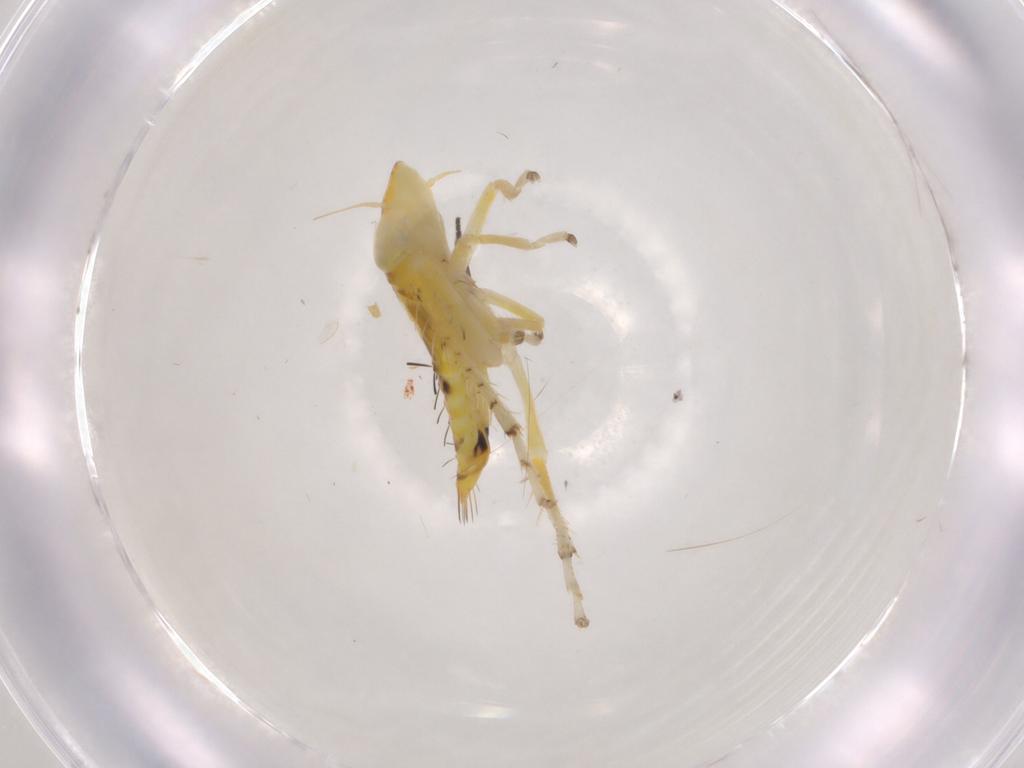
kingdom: Animalia
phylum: Arthropoda
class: Insecta
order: Hemiptera
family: Cicadellidae
